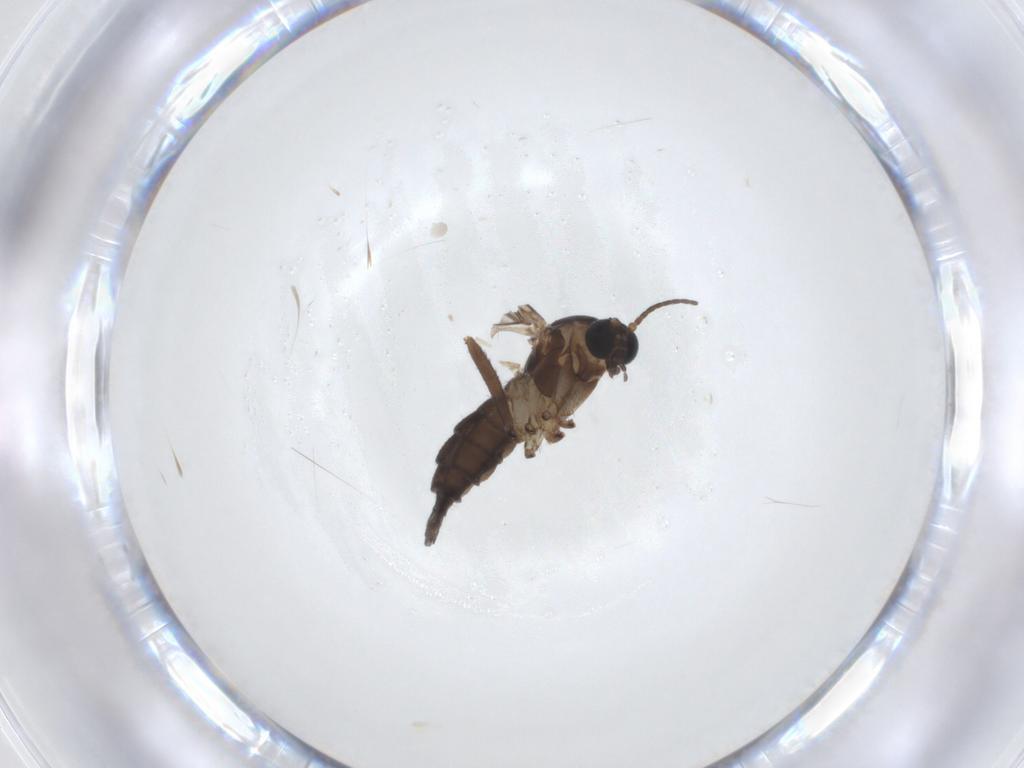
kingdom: Animalia
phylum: Arthropoda
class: Insecta
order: Diptera
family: Sciaridae
